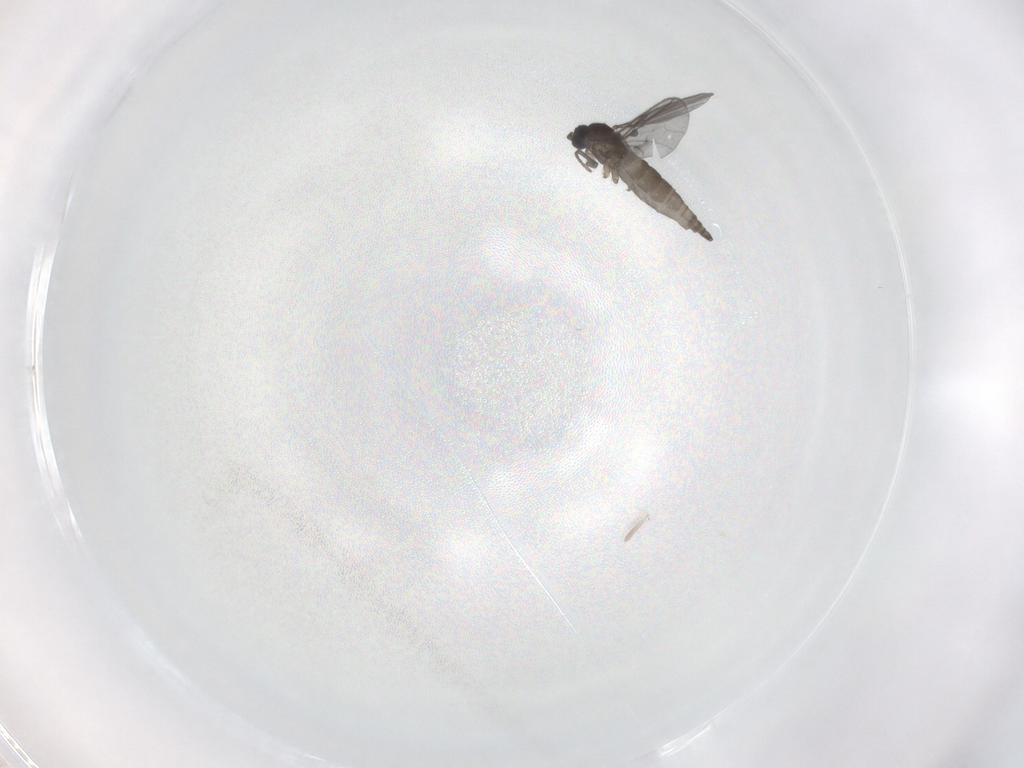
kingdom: Animalia
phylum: Arthropoda
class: Insecta
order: Diptera
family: Sciaridae
